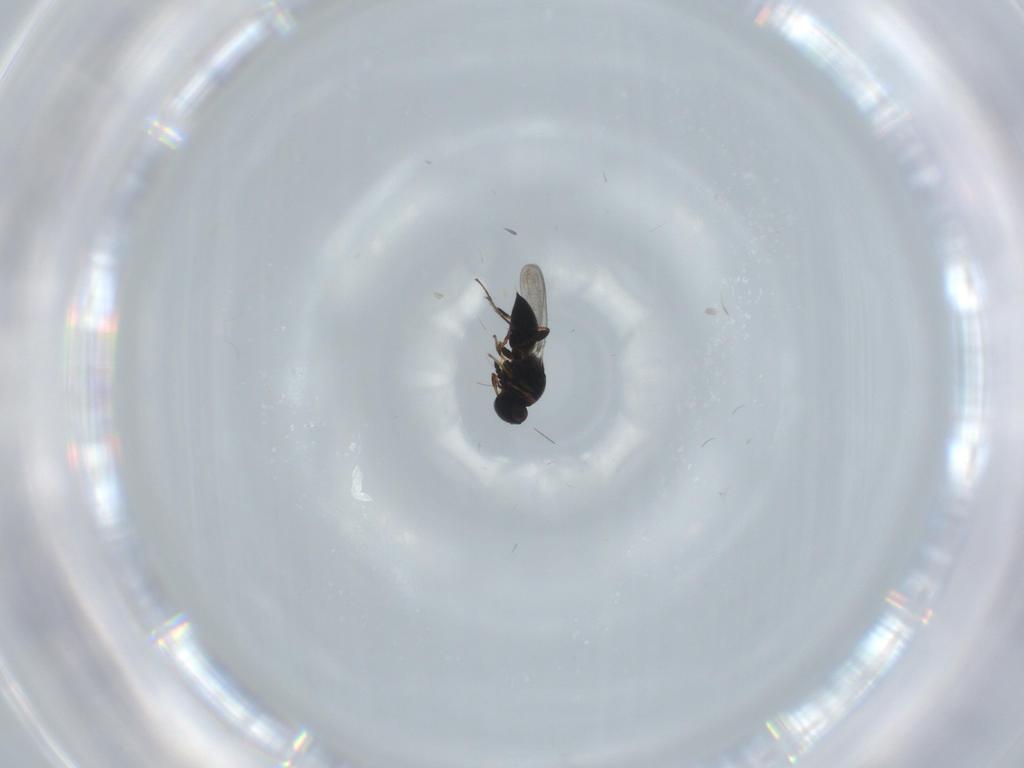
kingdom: Animalia
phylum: Arthropoda
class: Insecta
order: Hymenoptera
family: Platygastridae
